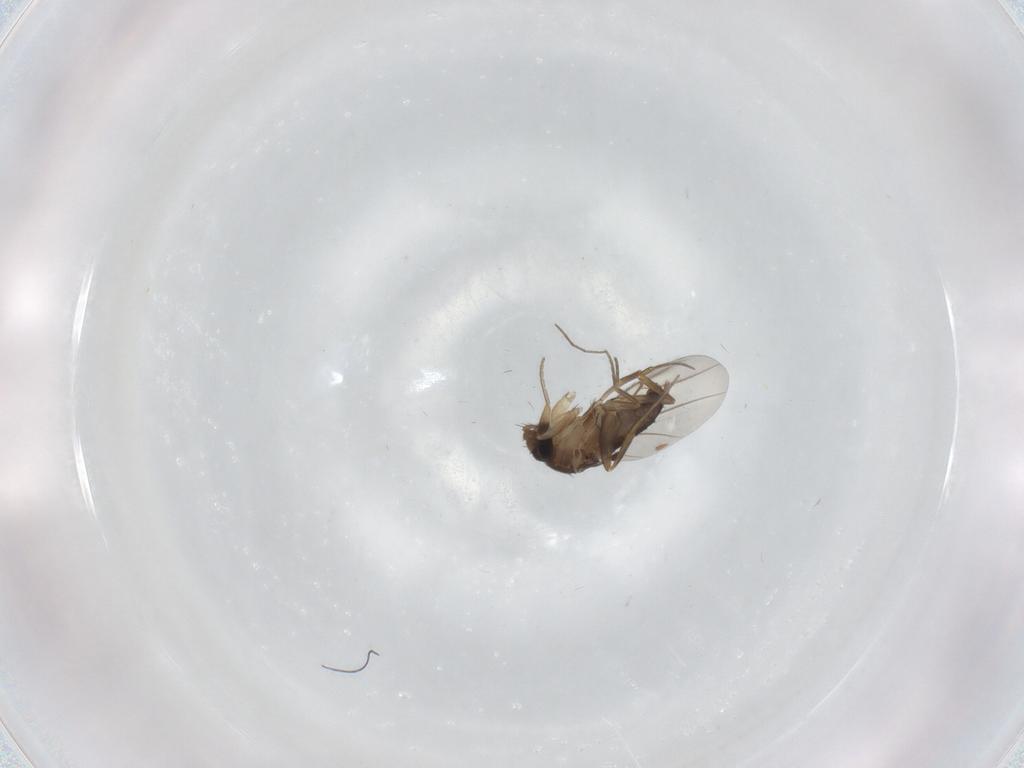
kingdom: Animalia
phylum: Arthropoda
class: Insecta
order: Diptera
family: Phoridae
